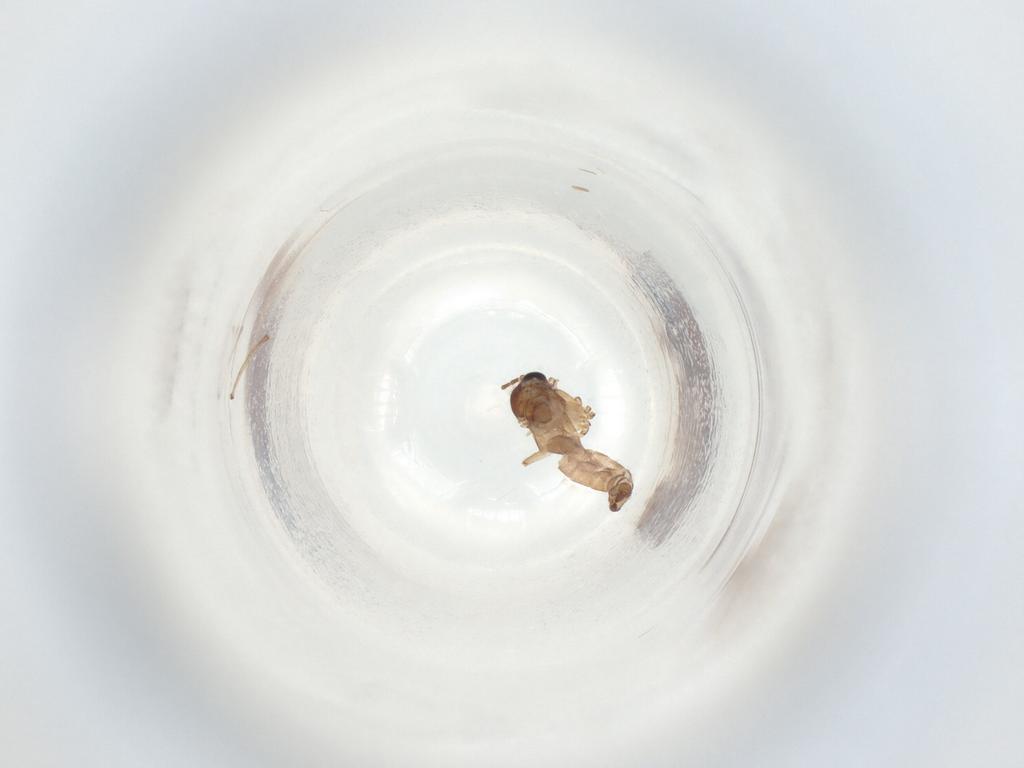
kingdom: Animalia
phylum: Arthropoda
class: Insecta
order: Diptera
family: Sciaridae
